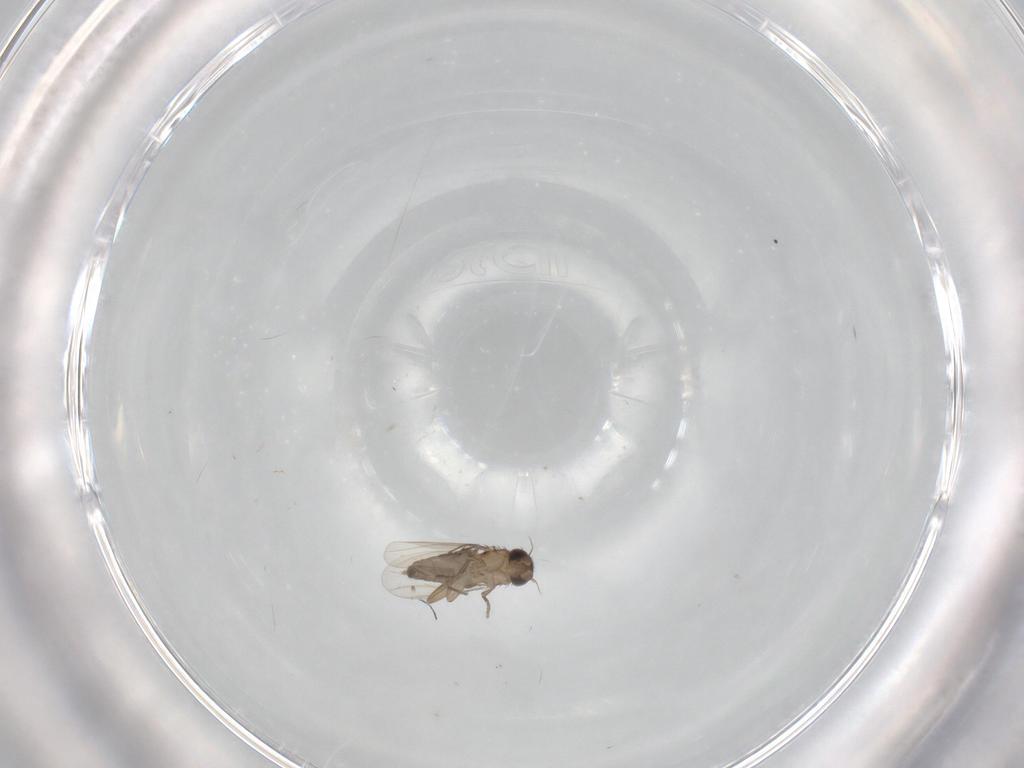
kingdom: Animalia
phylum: Arthropoda
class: Insecta
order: Diptera
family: Phoridae
